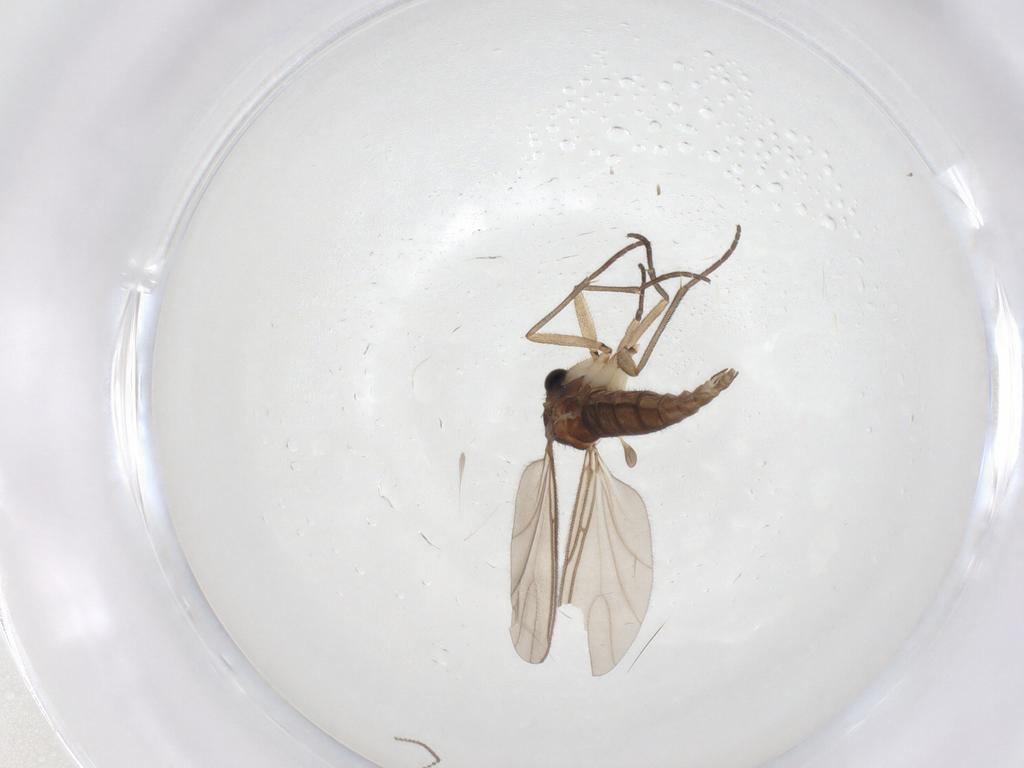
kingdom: Animalia
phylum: Arthropoda
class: Insecta
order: Diptera
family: Sciaridae
